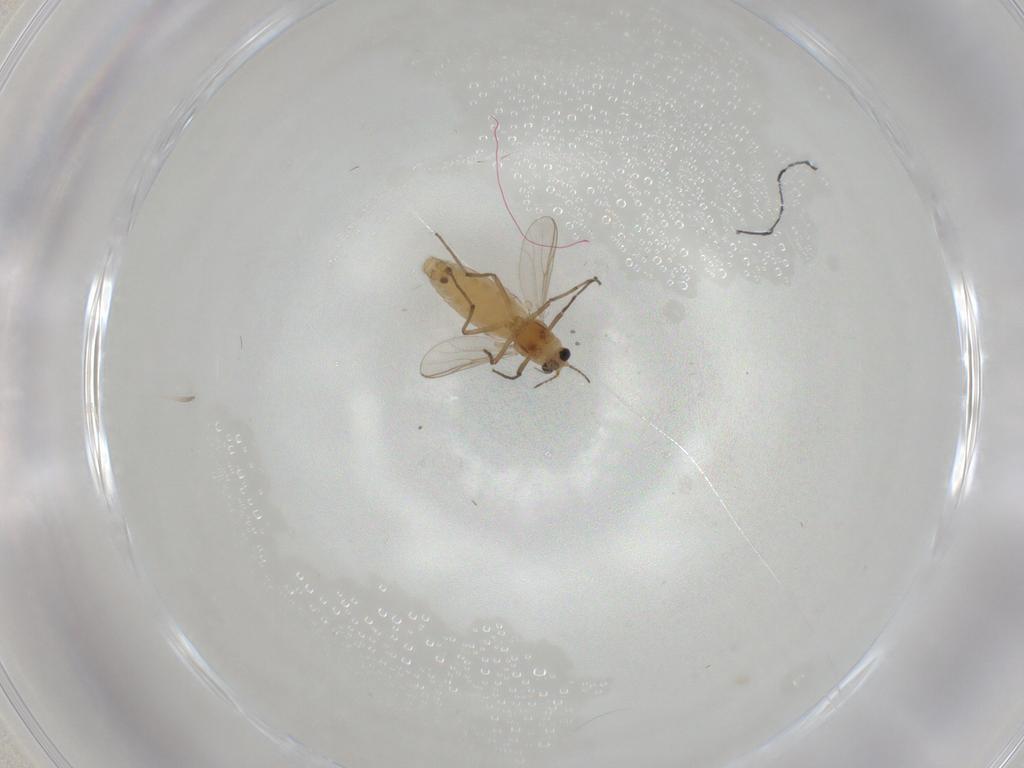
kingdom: Animalia
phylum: Arthropoda
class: Insecta
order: Diptera
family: Chironomidae
